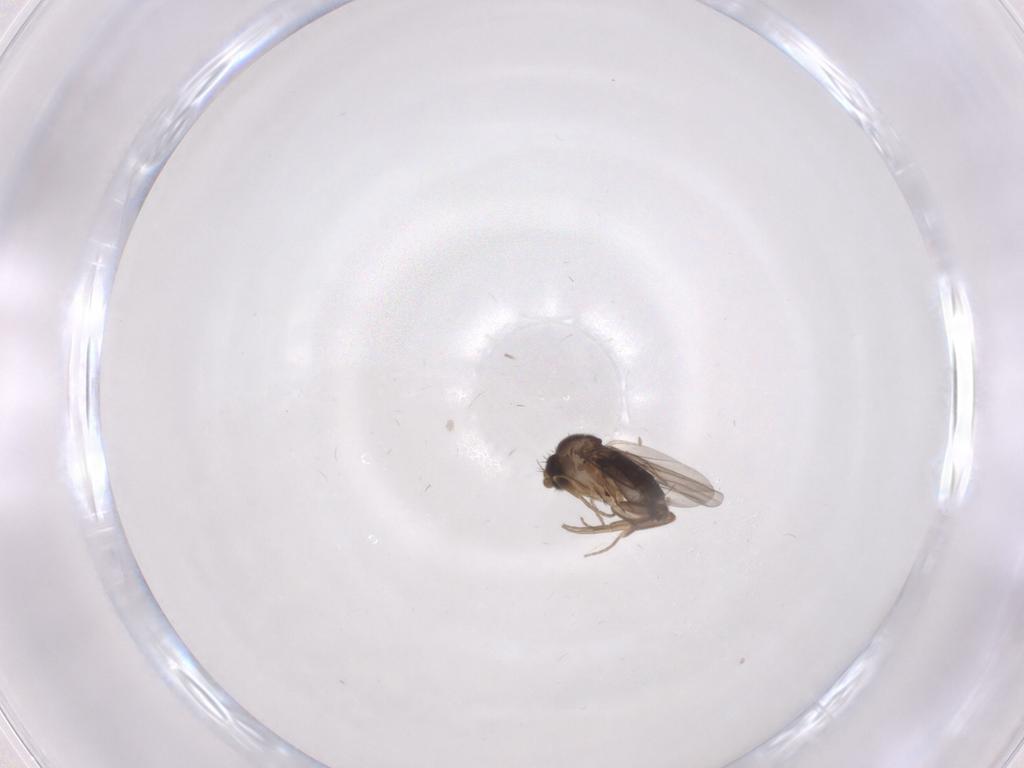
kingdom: Animalia
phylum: Arthropoda
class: Insecta
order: Diptera
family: Phoridae
